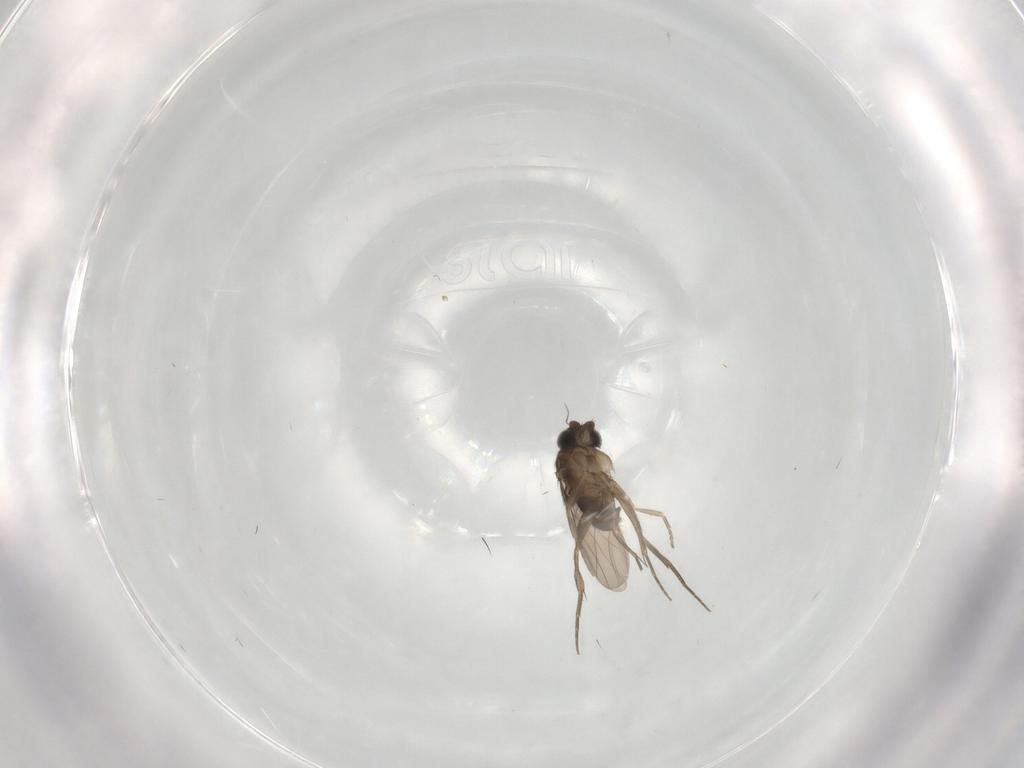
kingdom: Animalia
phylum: Arthropoda
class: Insecta
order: Diptera
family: Phoridae
